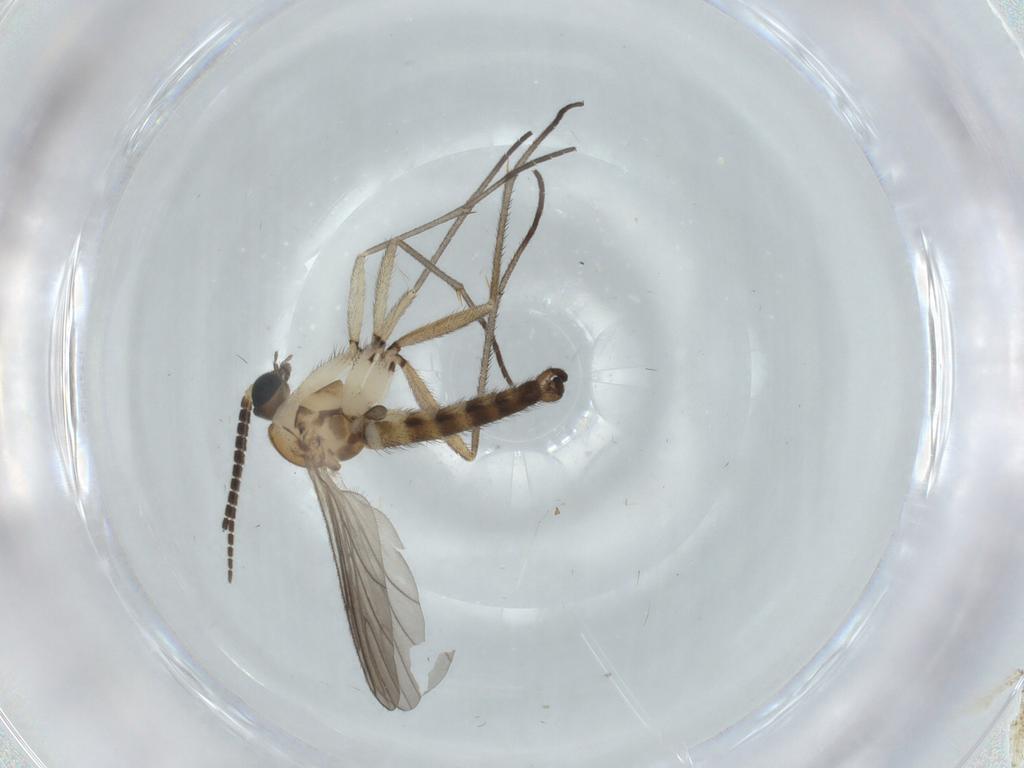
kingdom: Animalia
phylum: Arthropoda
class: Insecta
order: Diptera
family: Sciaridae
